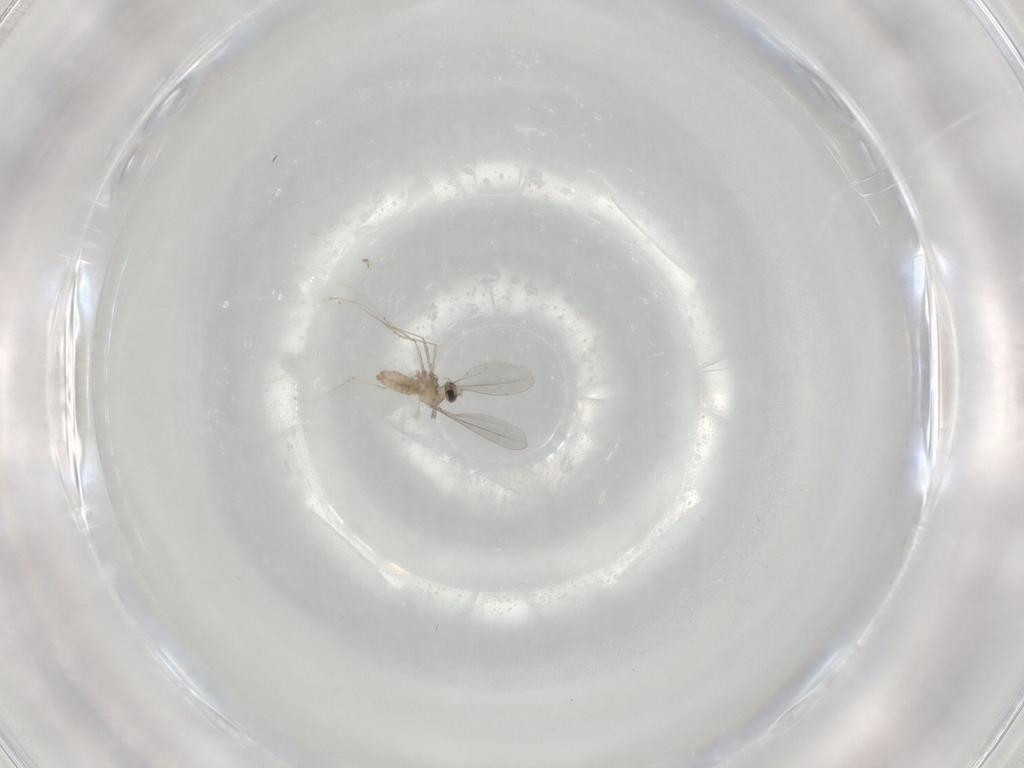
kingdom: Animalia
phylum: Arthropoda
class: Insecta
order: Diptera
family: Cecidomyiidae
